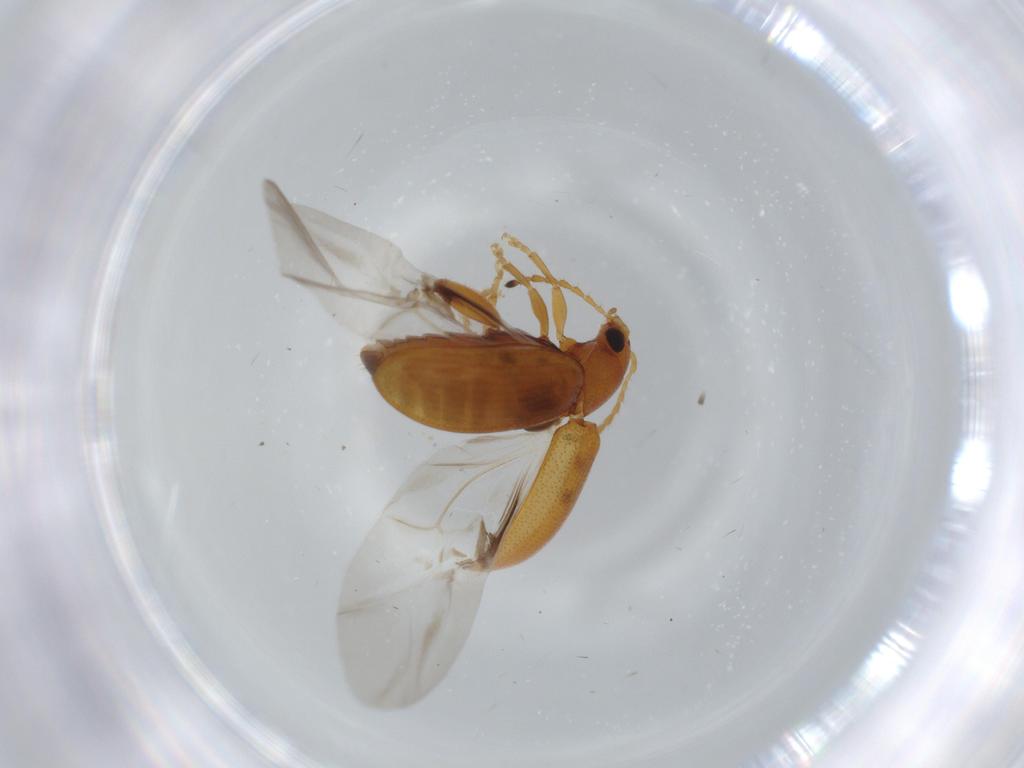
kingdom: Animalia
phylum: Arthropoda
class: Insecta
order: Coleoptera
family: Chrysomelidae
